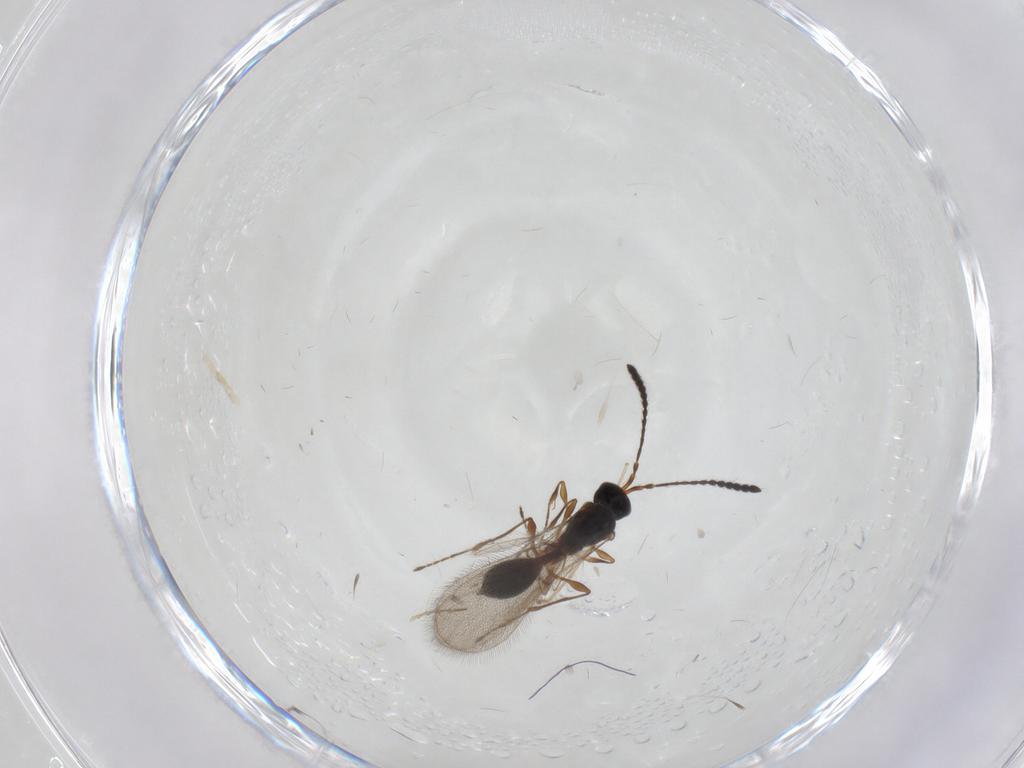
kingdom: Animalia
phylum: Arthropoda
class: Insecta
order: Hymenoptera
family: Diapriidae
